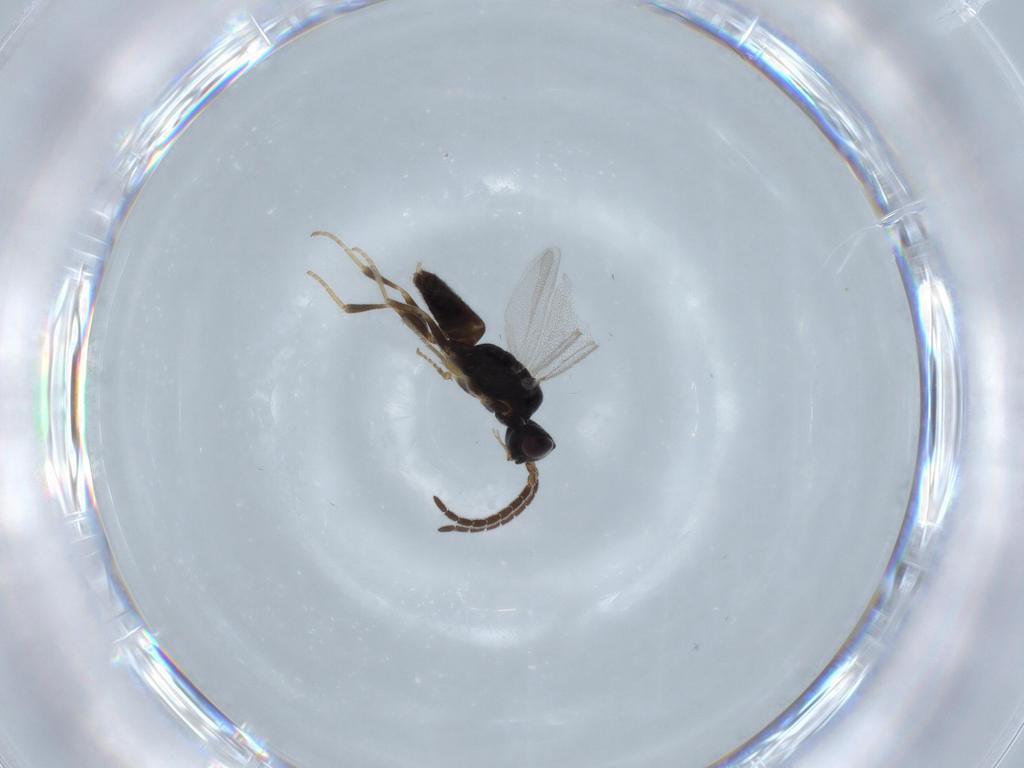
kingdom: Animalia
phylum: Arthropoda
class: Insecta
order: Hymenoptera
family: Dryinidae
